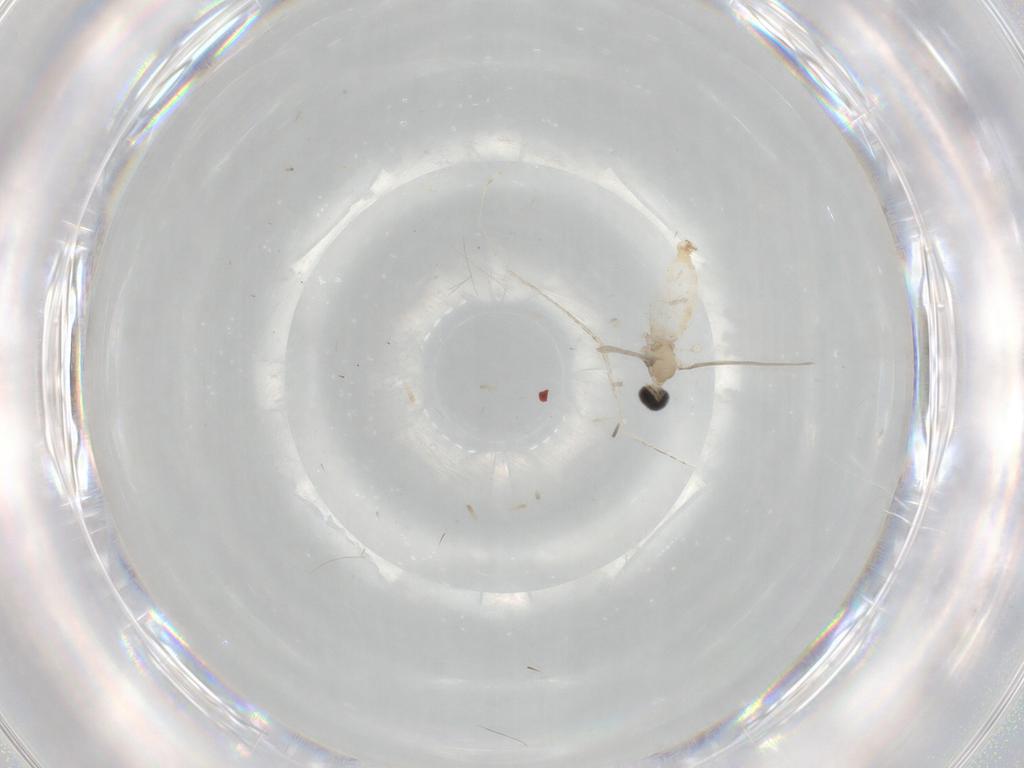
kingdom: Animalia
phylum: Arthropoda
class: Insecta
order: Diptera
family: Cecidomyiidae
